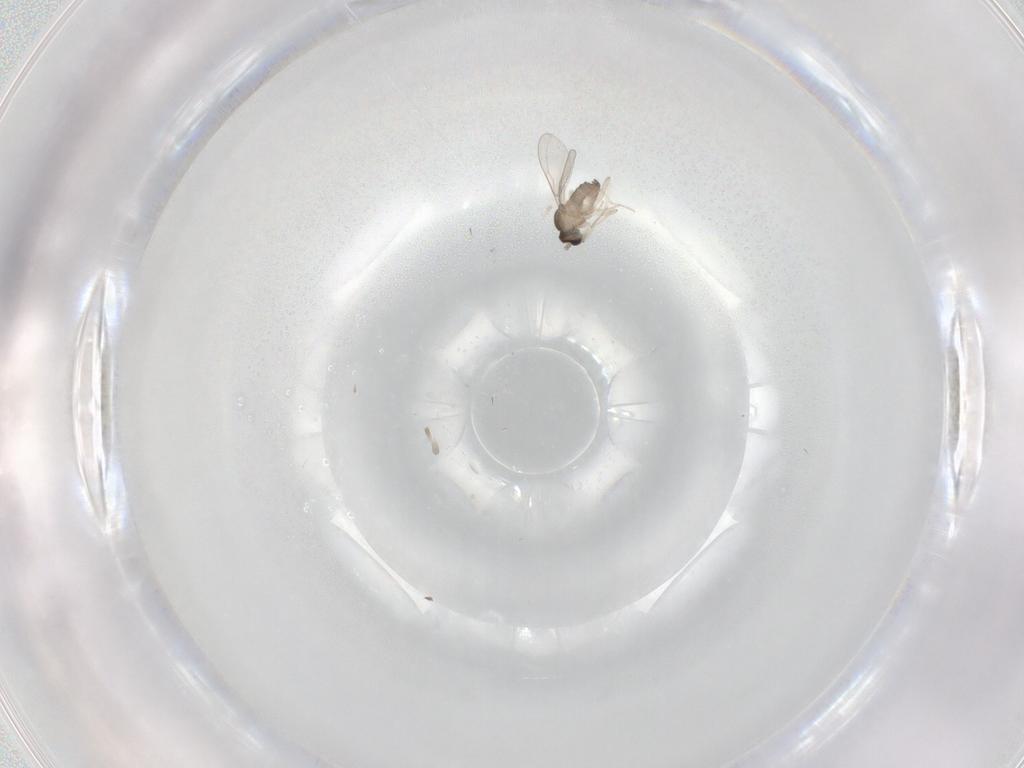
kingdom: Animalia
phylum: Arthropoda
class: Insecta
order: Diptera
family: Cecidomyiidae
